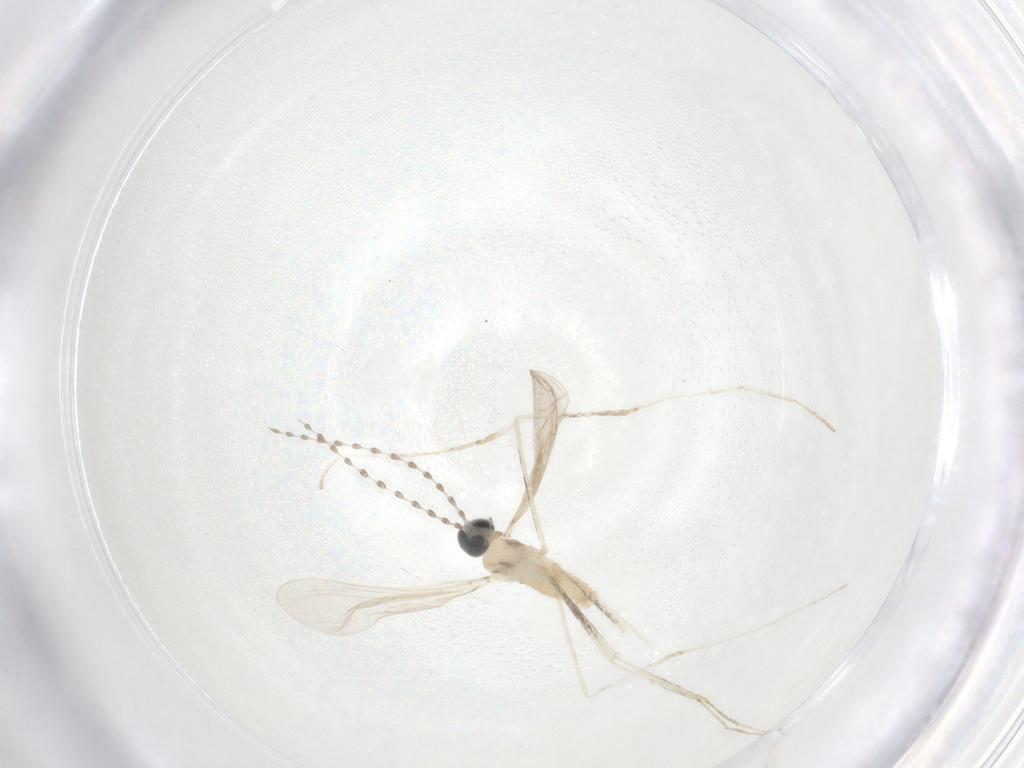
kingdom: Animalia
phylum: Arthropoda
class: Insecta
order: Diptera
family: Cecidomyiidae
